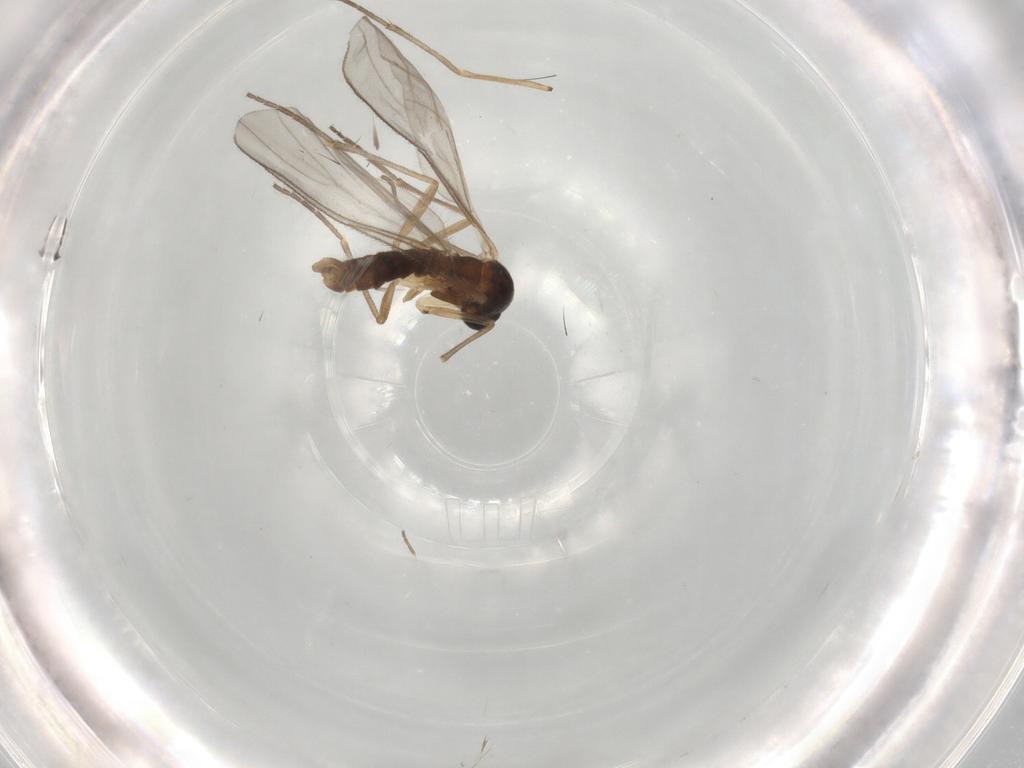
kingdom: Animalia
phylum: Arthropoda
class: Insecta
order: Diptera
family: Sciaridae
